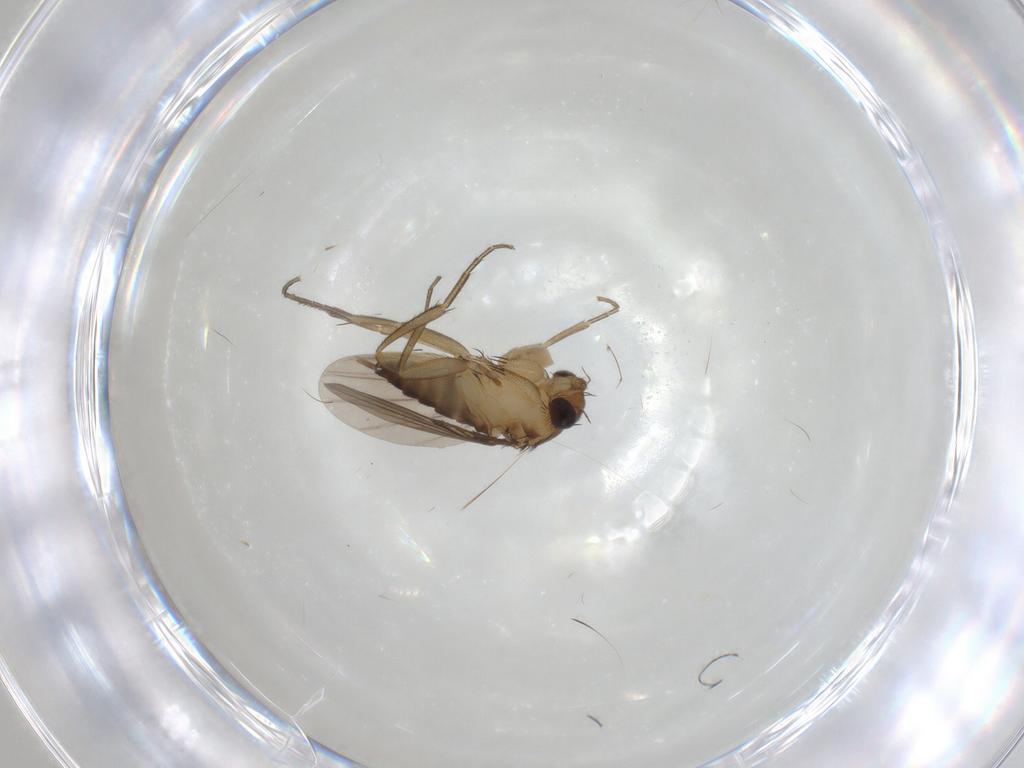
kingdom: Animalia
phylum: Arthropoda
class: Insecta
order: Diptera
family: Phoridae
